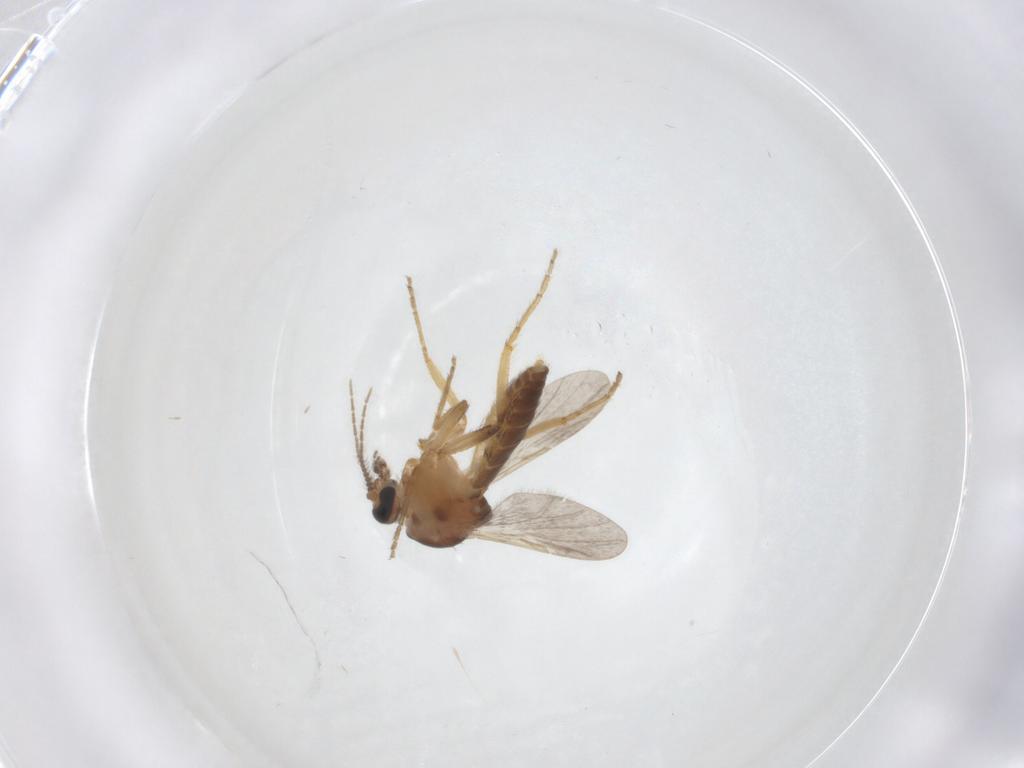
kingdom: Animalia
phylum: Arthropoda
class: Insecta
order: Diptera
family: Ceratopogonidae
